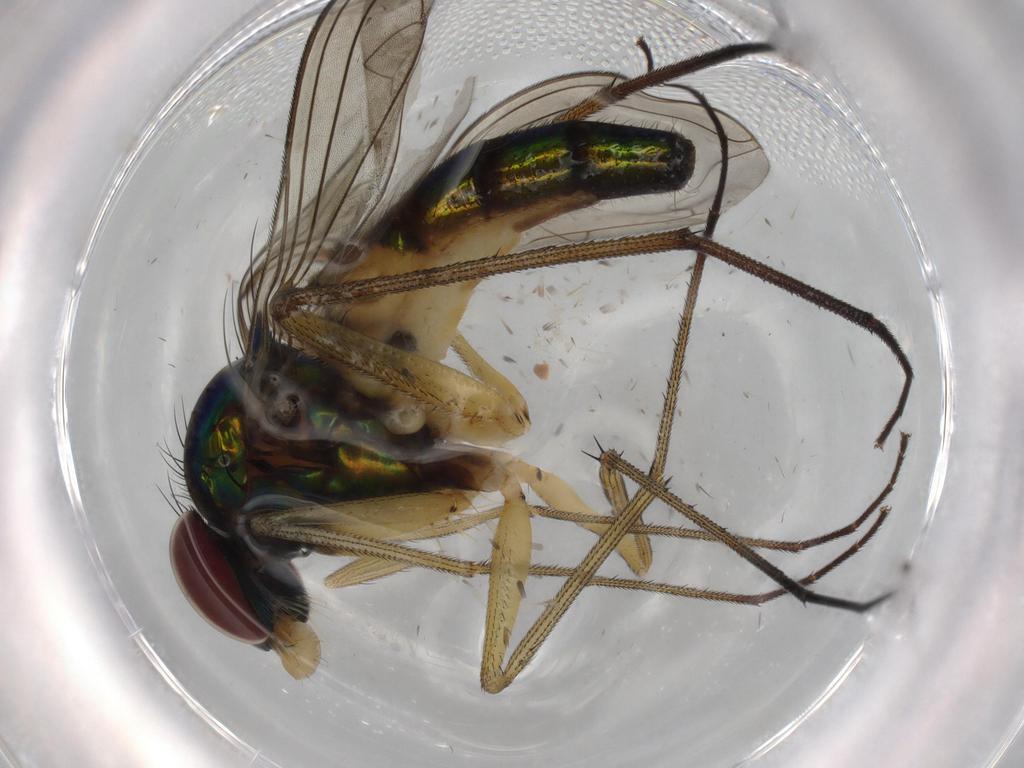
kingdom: Animalia
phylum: Arthropoda
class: Insecta
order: Diptera
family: Dolichopodidae
